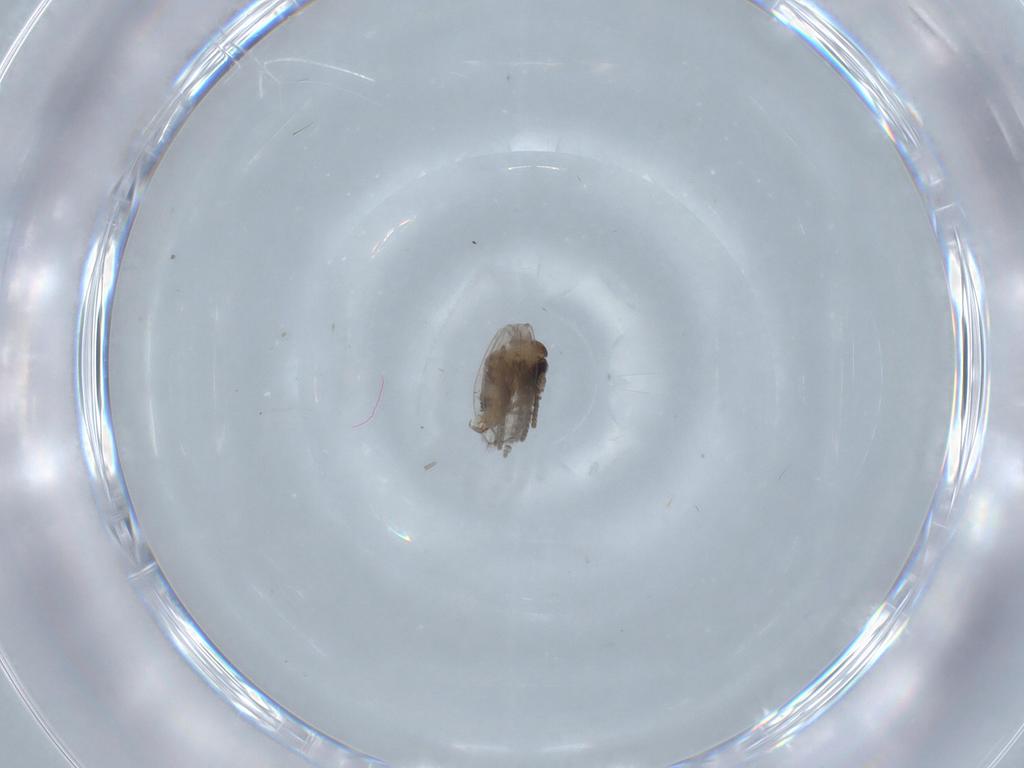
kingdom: Animalia
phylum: Arthropoda
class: Insecta
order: Diptera
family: Psychodidae
